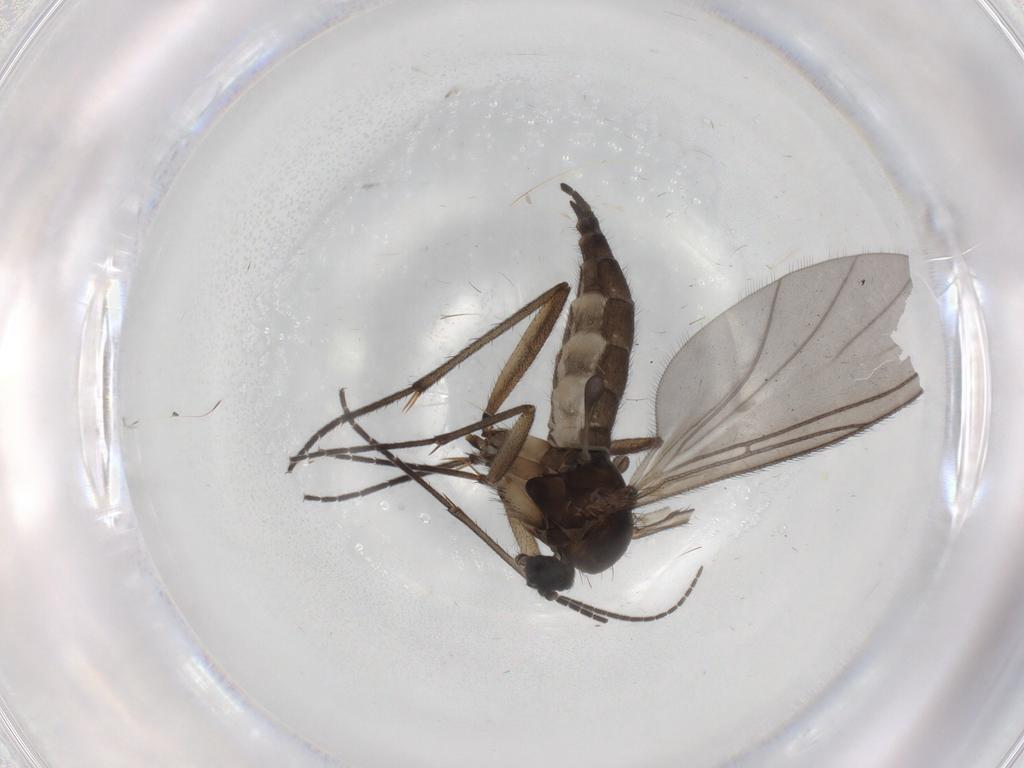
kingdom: Animalia
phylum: Arthropoda
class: Insecta
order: Diptera
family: Sciaridae
